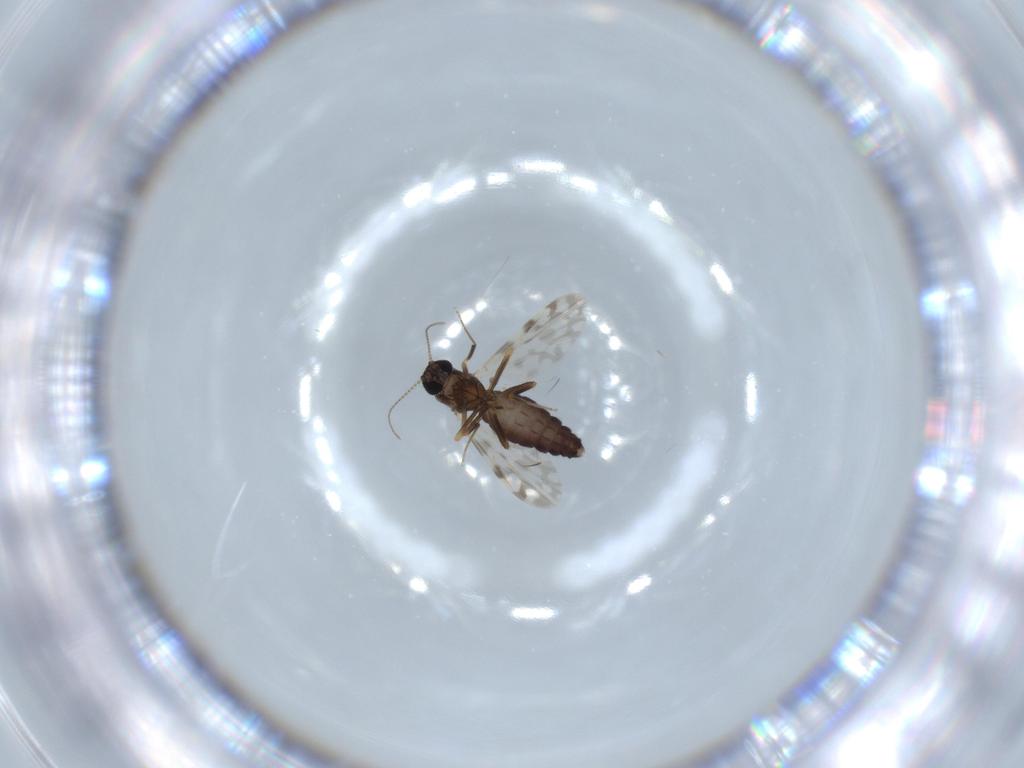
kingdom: Animalia
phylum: Arthropoda
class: Insecta
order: Diptera
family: Ceratopogonidae
